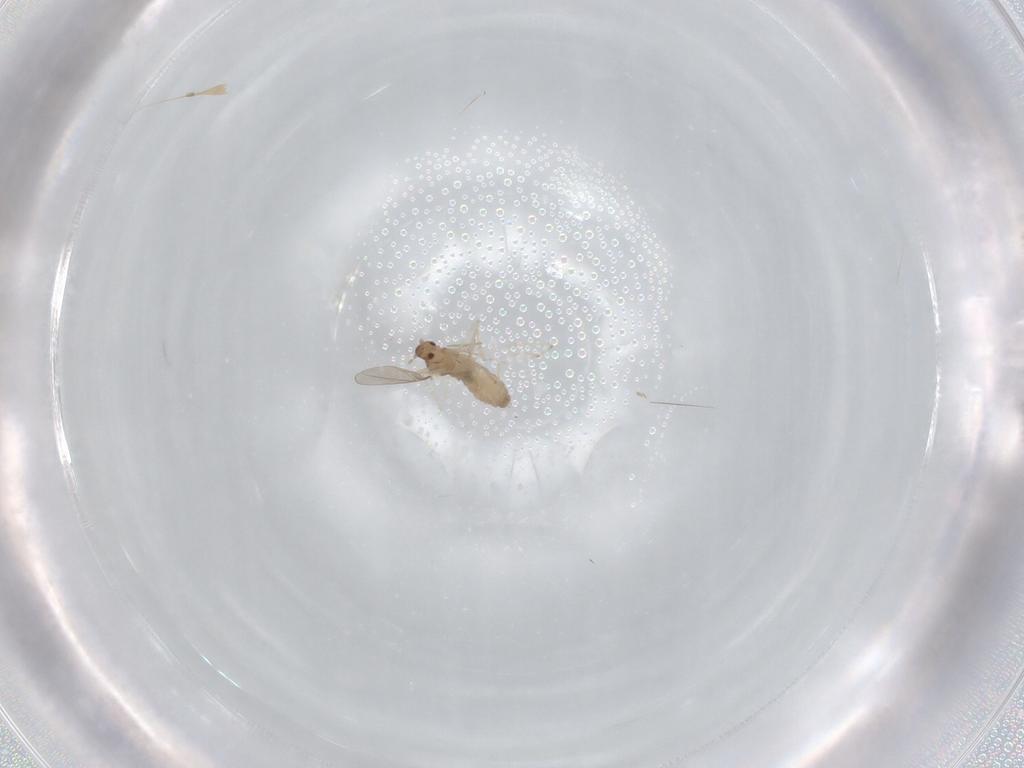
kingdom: Animalia
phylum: Arthropoda
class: Insecta
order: Diptera
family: Cecidomyiidae
